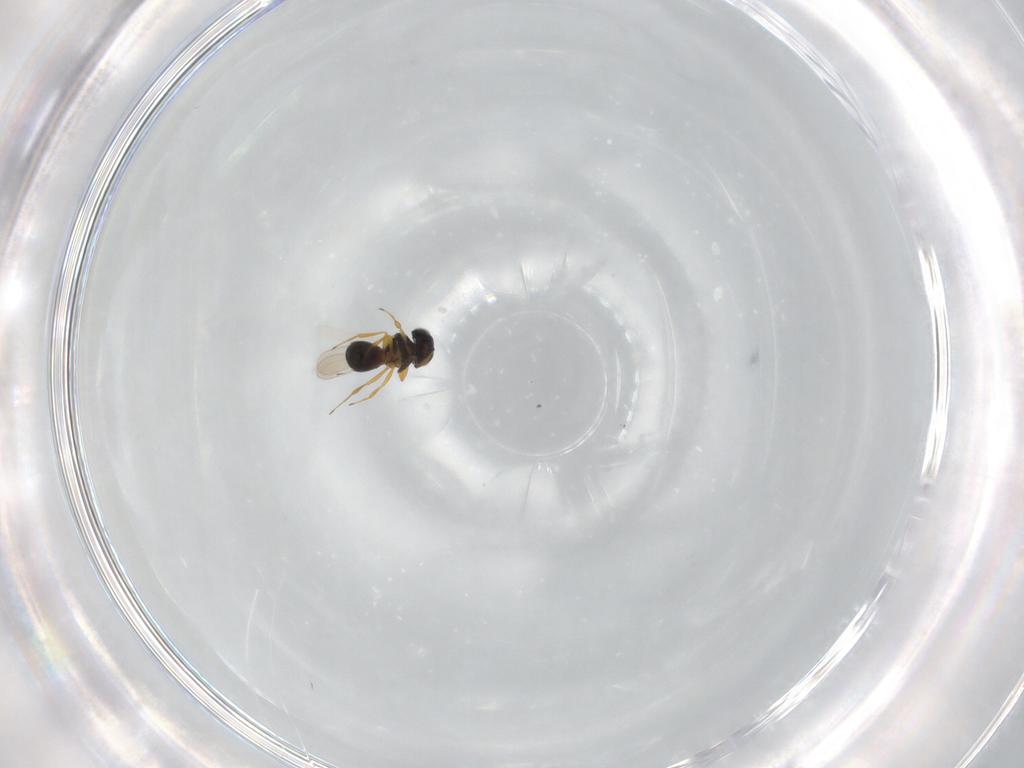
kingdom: Animalia
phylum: Arthropoda
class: Insecta
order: Hymenoptera
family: Scelionidae
